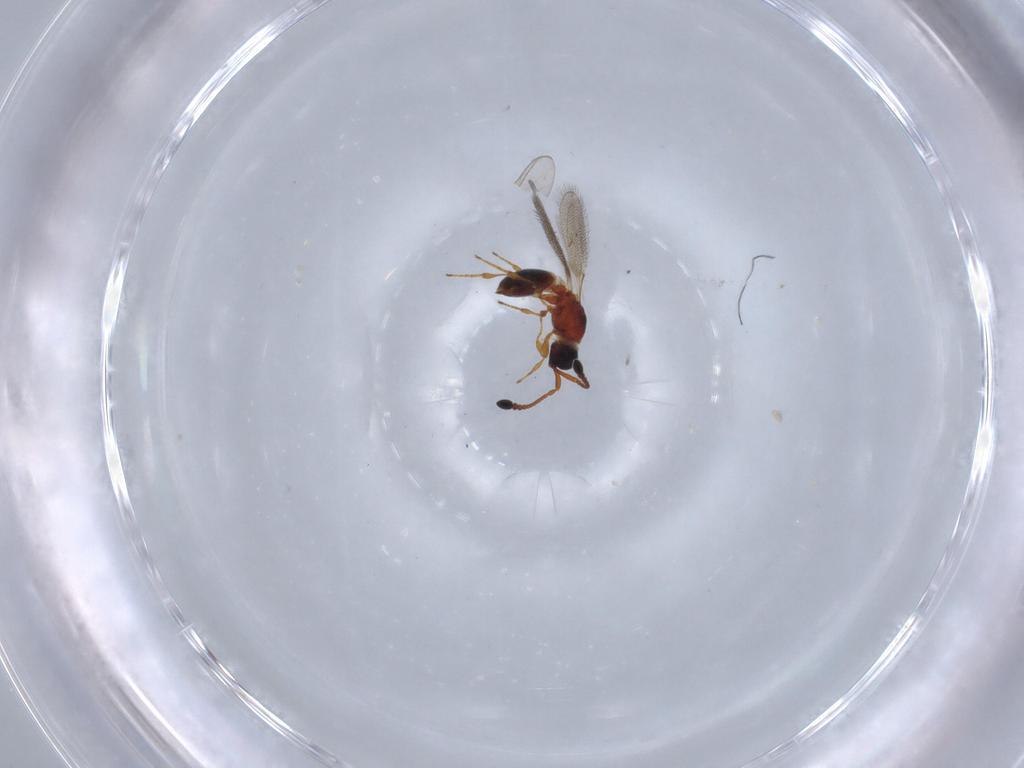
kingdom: Animalia
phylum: Arthropoda
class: Insecta
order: Hymenoptera
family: Diapriidae
